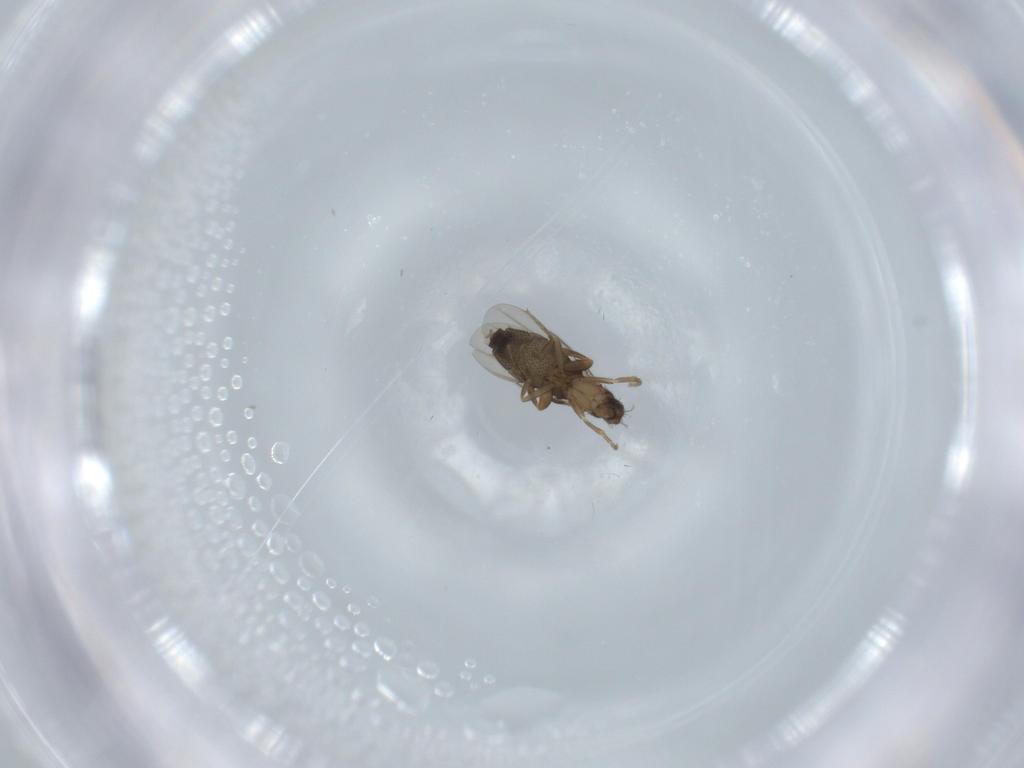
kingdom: Animalia
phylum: Arthropoda
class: Insecta
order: Diptera
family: Phoridae
